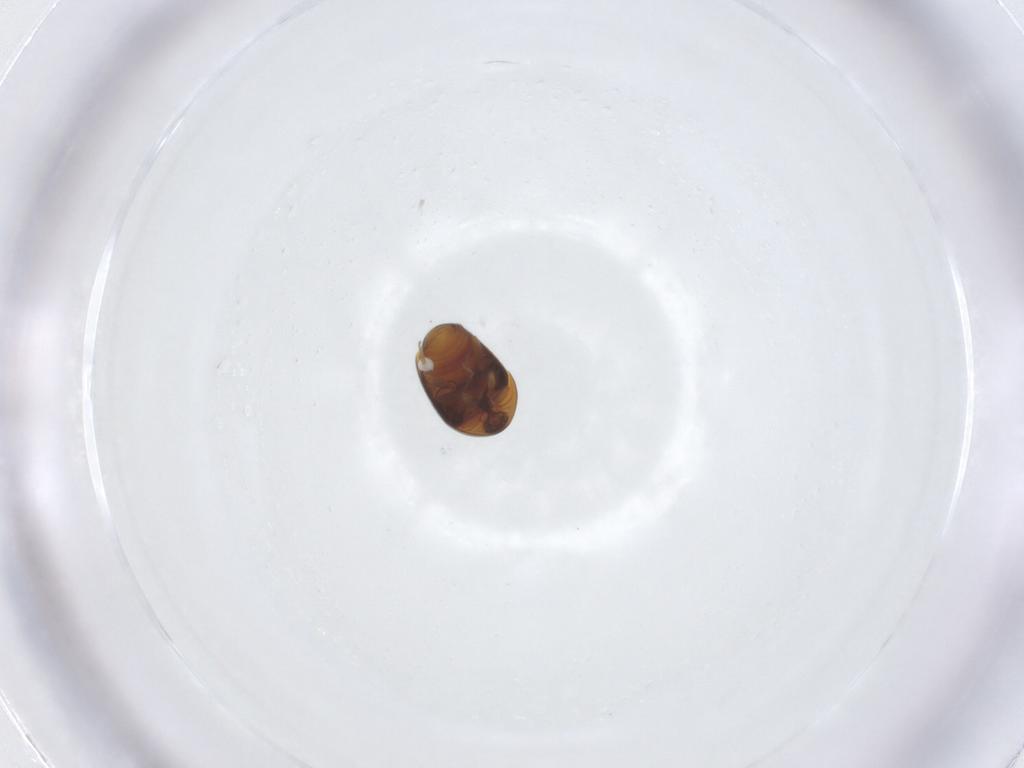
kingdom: Animalia
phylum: Arthropoda
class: Insecta
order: Coleoptera
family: Corylophidae
